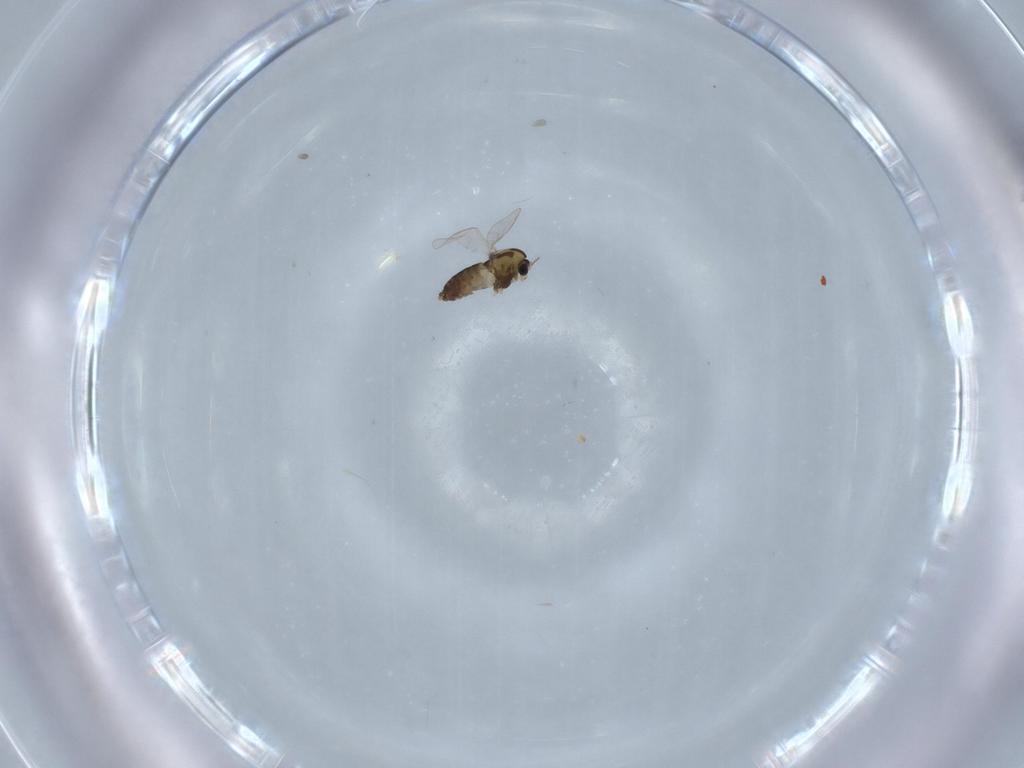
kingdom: Animalia
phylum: Arthropoda
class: Insecta
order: Diptera
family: Chironomidae
